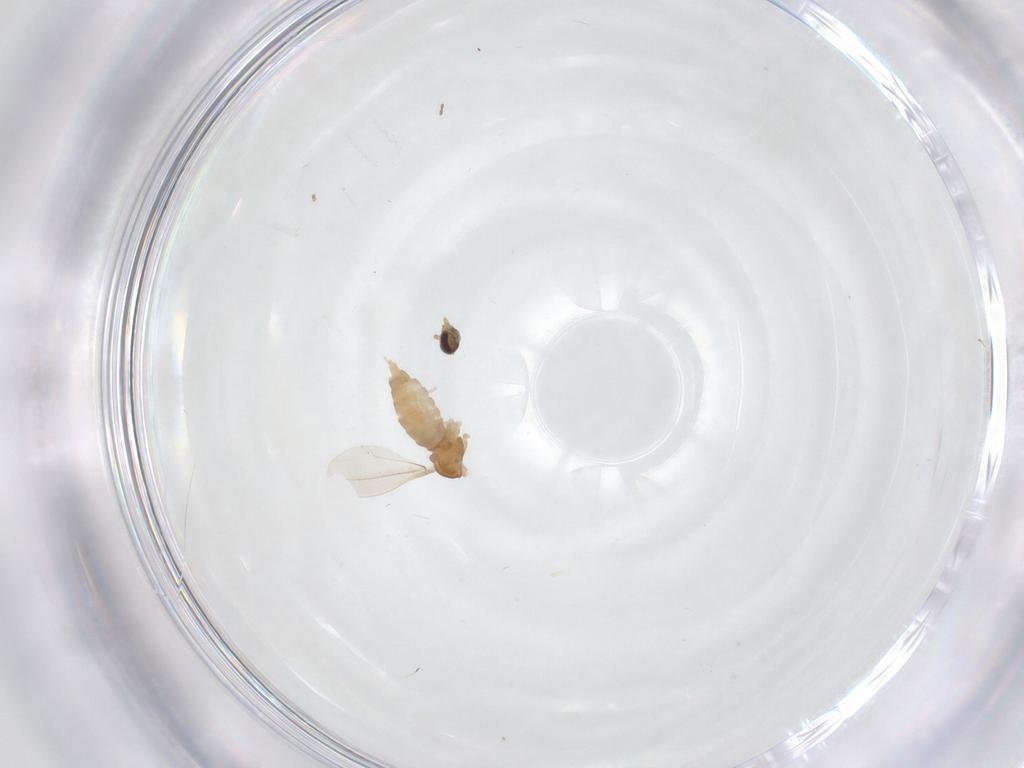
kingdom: Animalia
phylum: Arthropoda
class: Insecta
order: Diptera
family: Cecidomyiidae
